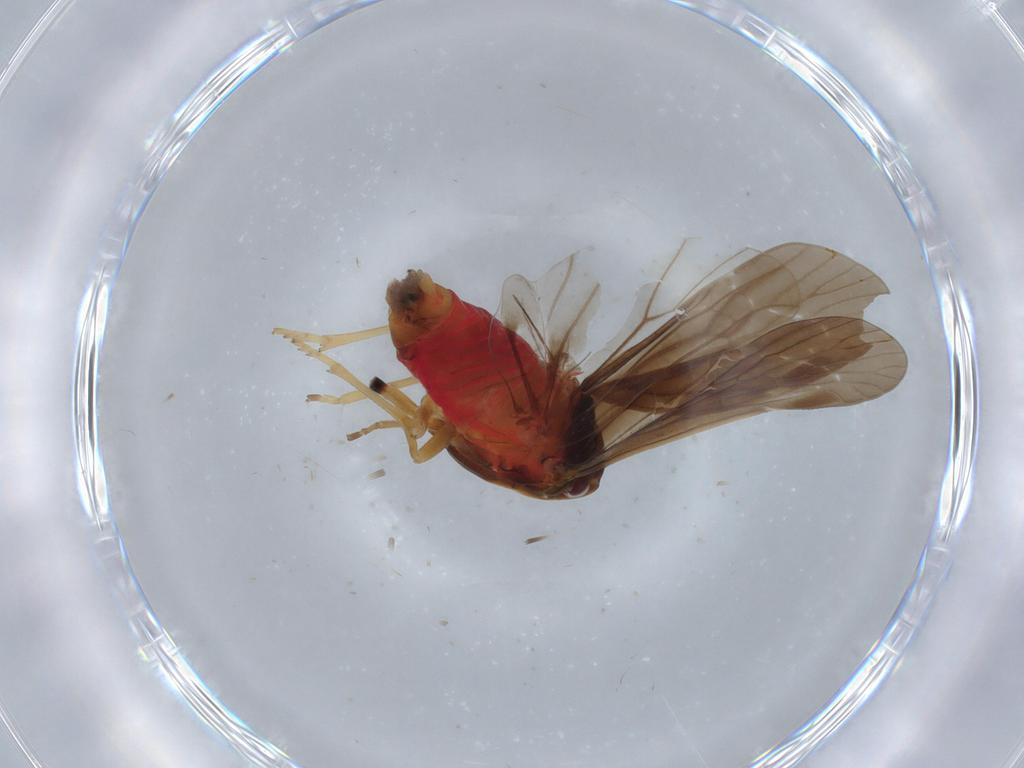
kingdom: Animalia
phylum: Arthropoda
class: Insecta
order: Hemiptera
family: Derbidae
